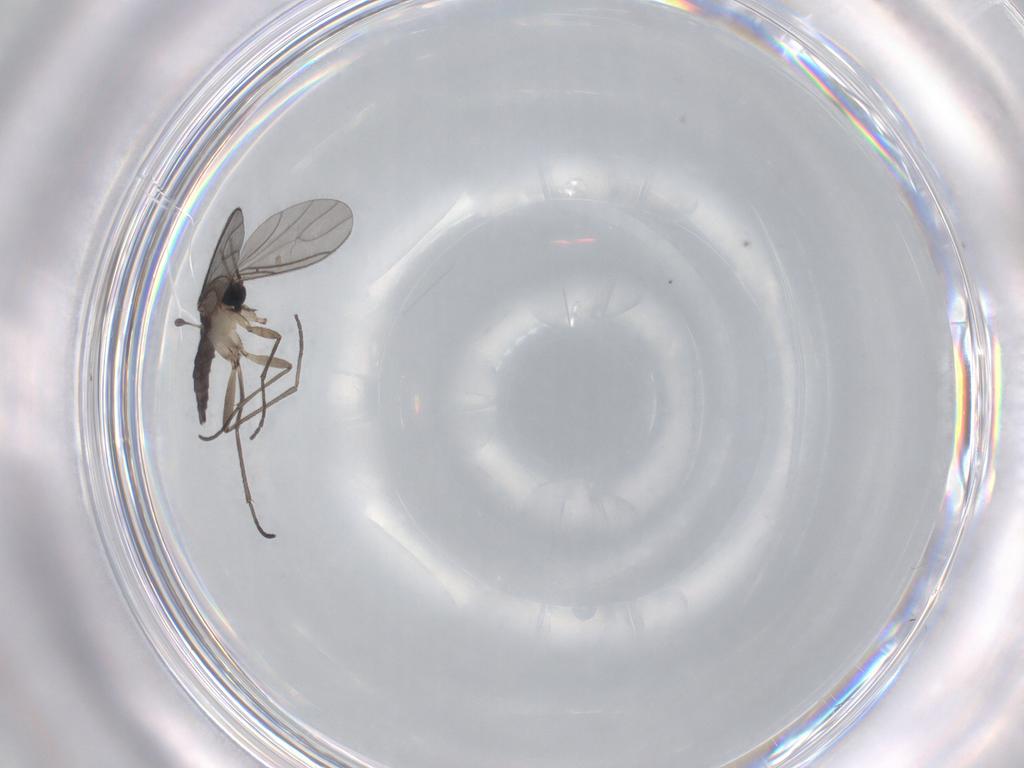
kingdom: Animalia
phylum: Arthropoda
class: Insecta
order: Diptera
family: Sciaridae
